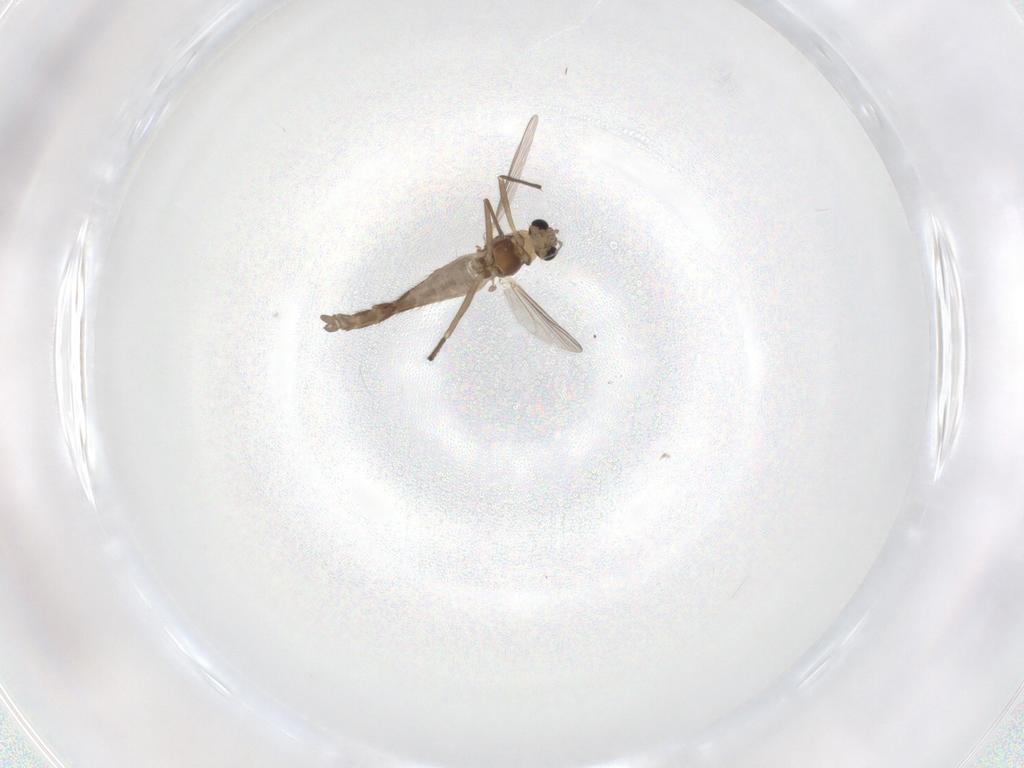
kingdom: Animalia
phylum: Arthropoda
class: Insecta
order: Diptera
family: Chironomidae
